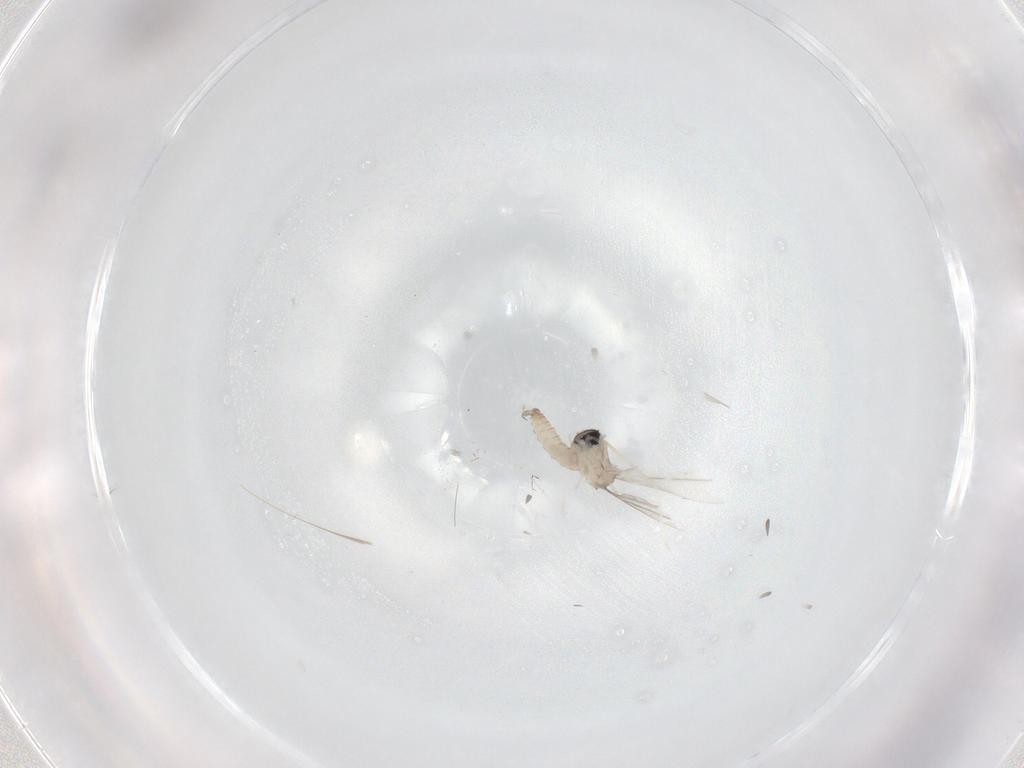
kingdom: Animalia
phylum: Arthropoda
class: Insecta
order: Diptera
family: Cecidomyiidae
